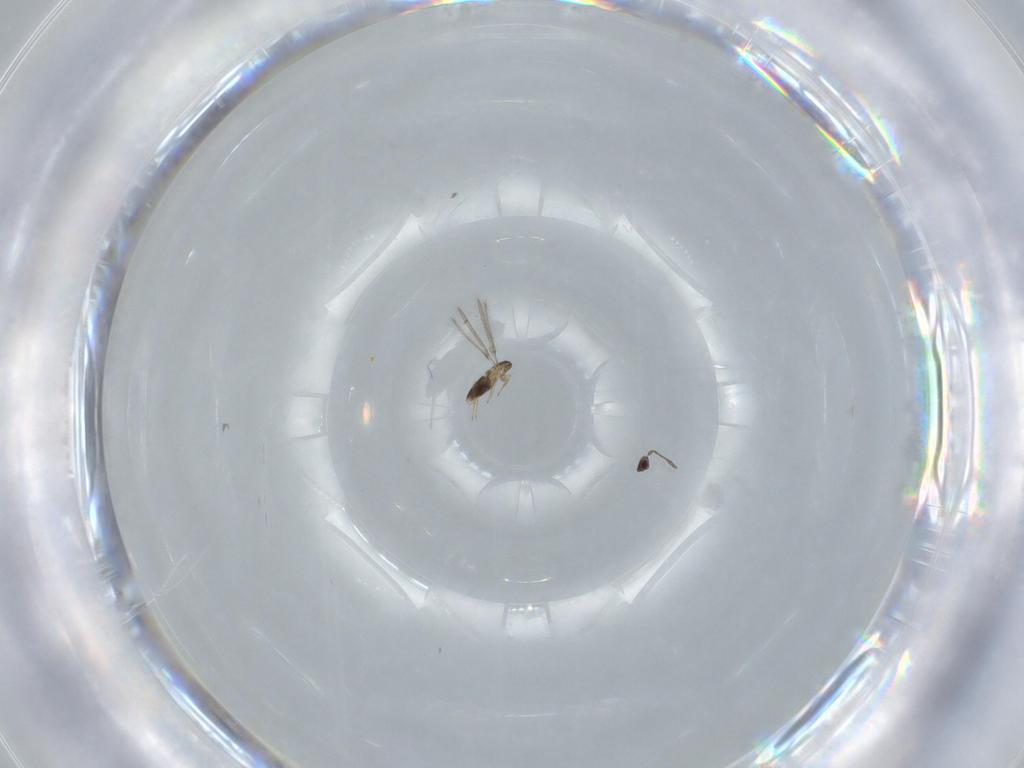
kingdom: Animalia
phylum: Arthropoda
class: Insecta
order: Hymenoptera
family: Mymaridae
